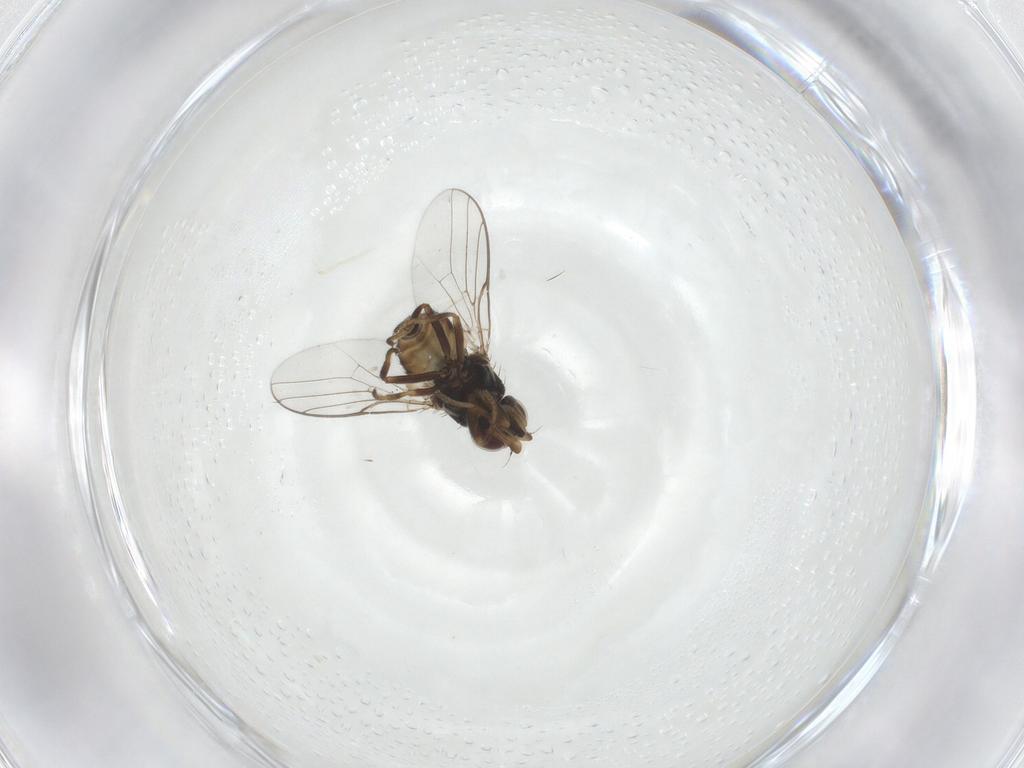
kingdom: Animalia
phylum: Arthropoda
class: Insecta
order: Diptera
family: Chloropidae
